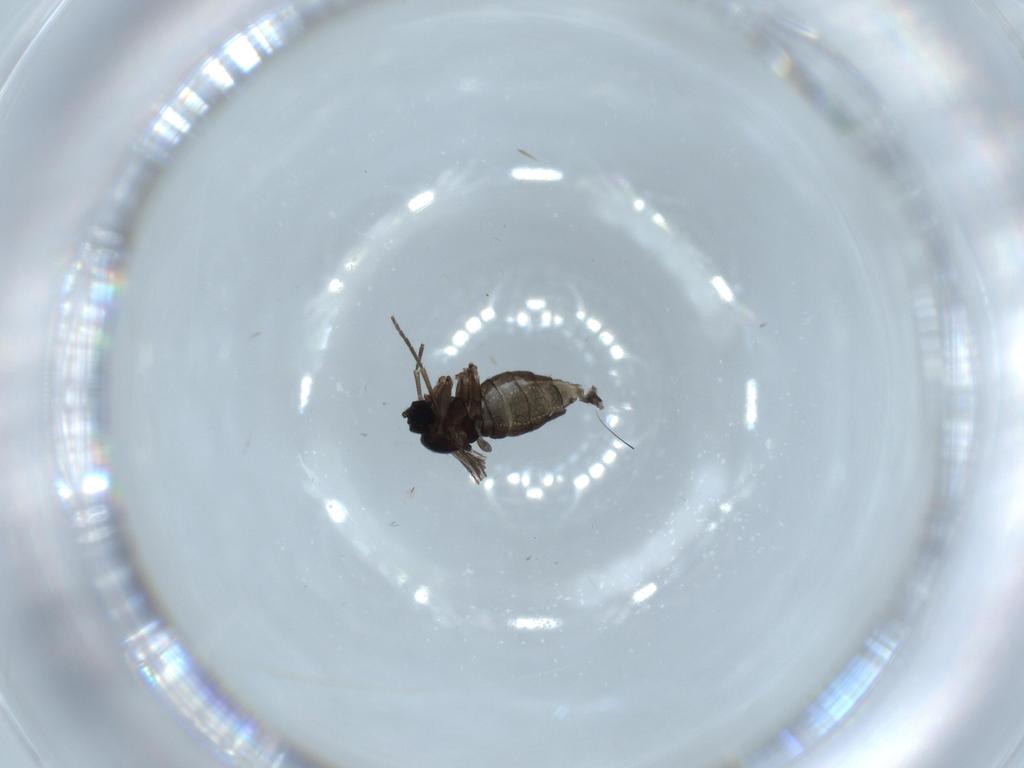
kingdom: Animalia
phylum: Arthropoda
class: Insecta
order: Diptera
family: Sciaridae
